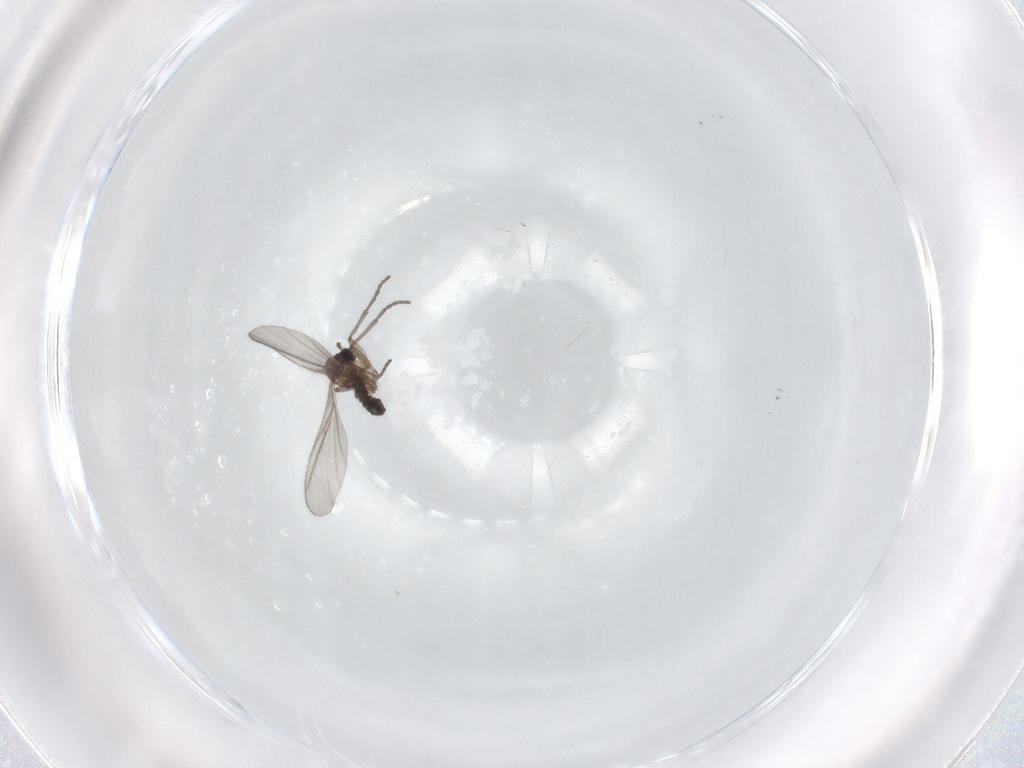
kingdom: Animalia
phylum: Arthropoda
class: Insecta
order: Diptera
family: Sciaridae
